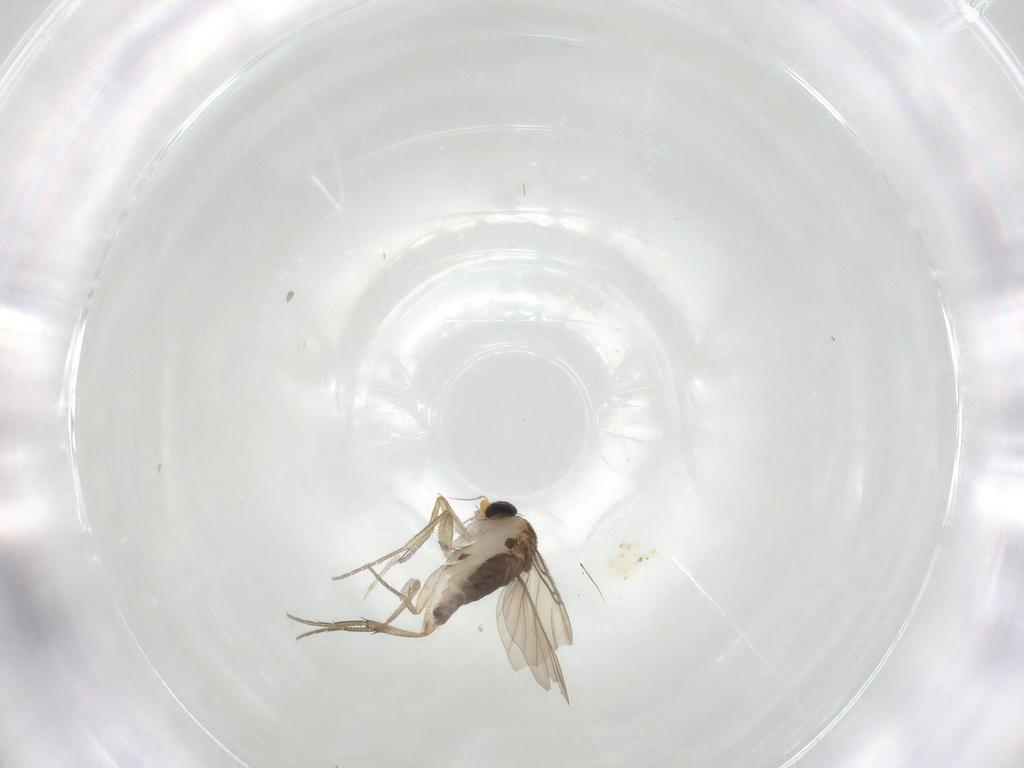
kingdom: Animalia
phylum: Arthropoda
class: Insecta
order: Diptera
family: Phoridae
